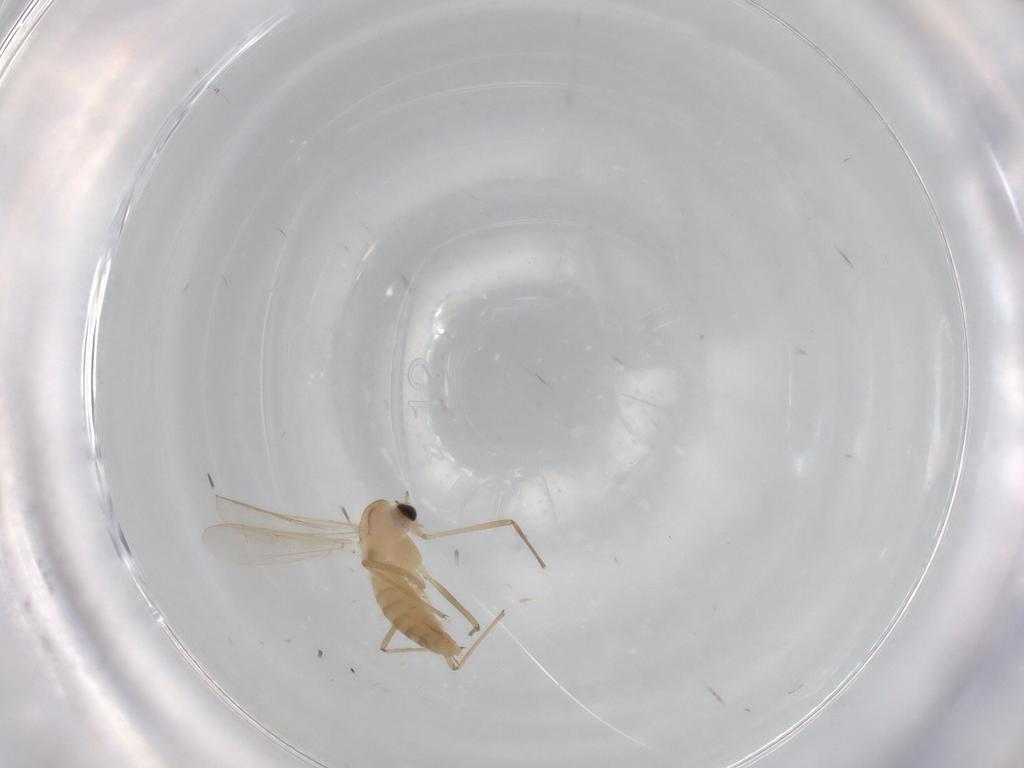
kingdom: Animalia
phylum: Arthropoda
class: Insecta
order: Diptera
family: Chironomidae
